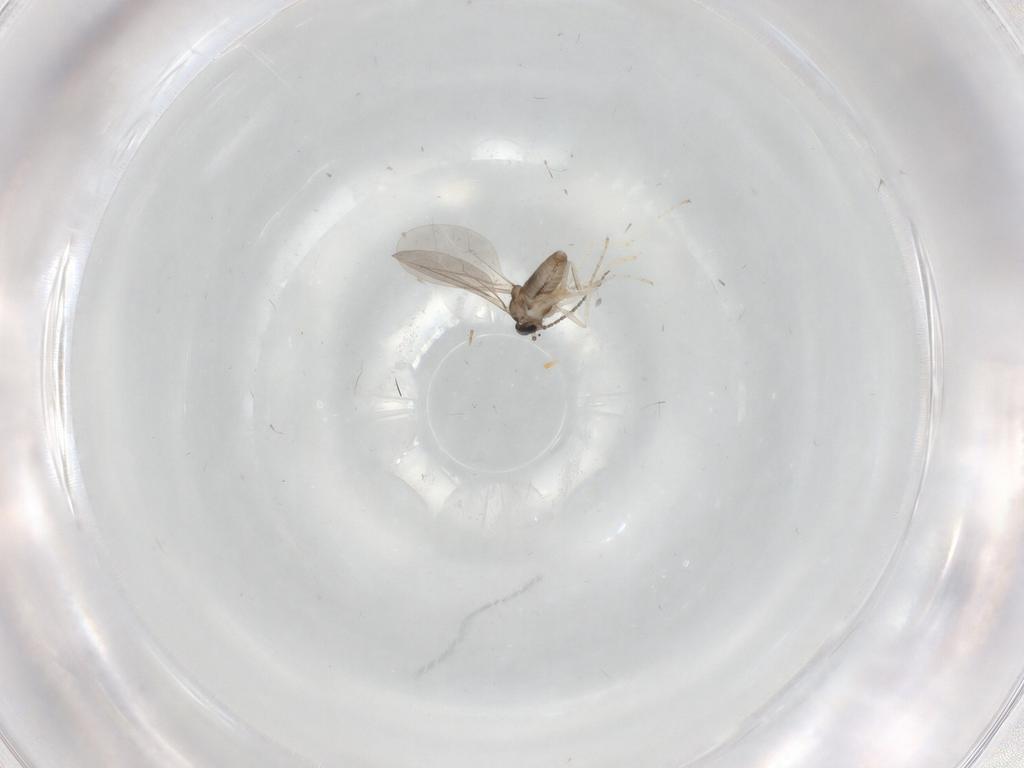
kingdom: Animalia
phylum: Arthropoda
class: Insecta
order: Diptera
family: Cecidomyiidae
